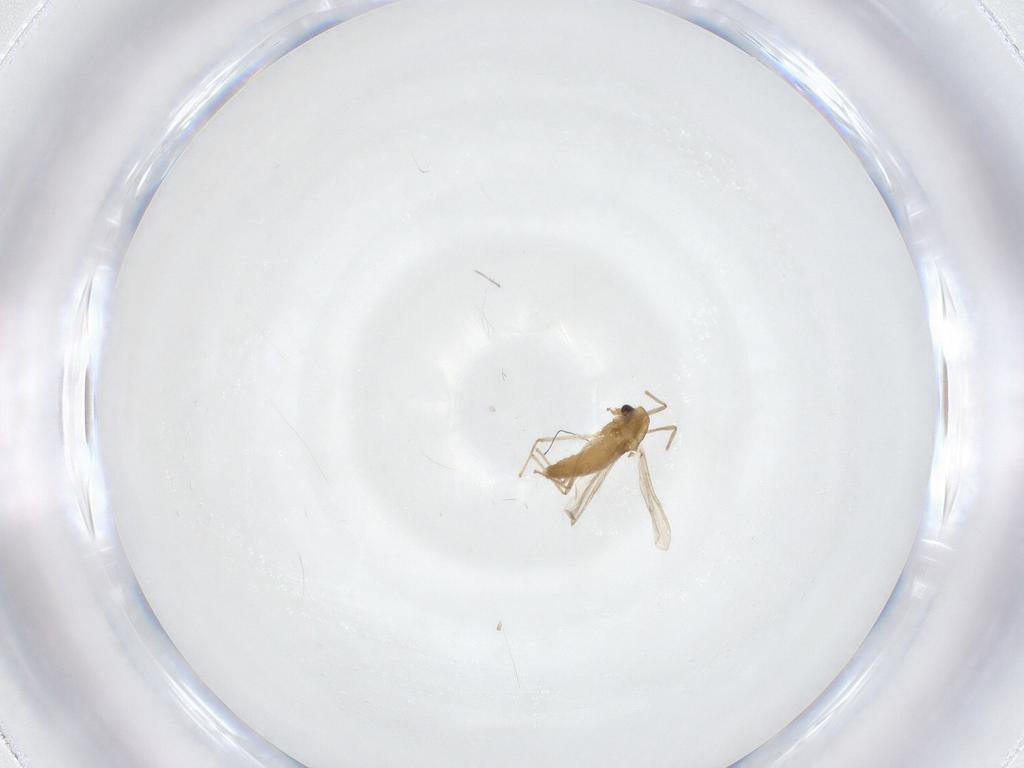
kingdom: Animalia
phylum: Arthropoda
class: Insecta
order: Diptera
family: Chironomidae
